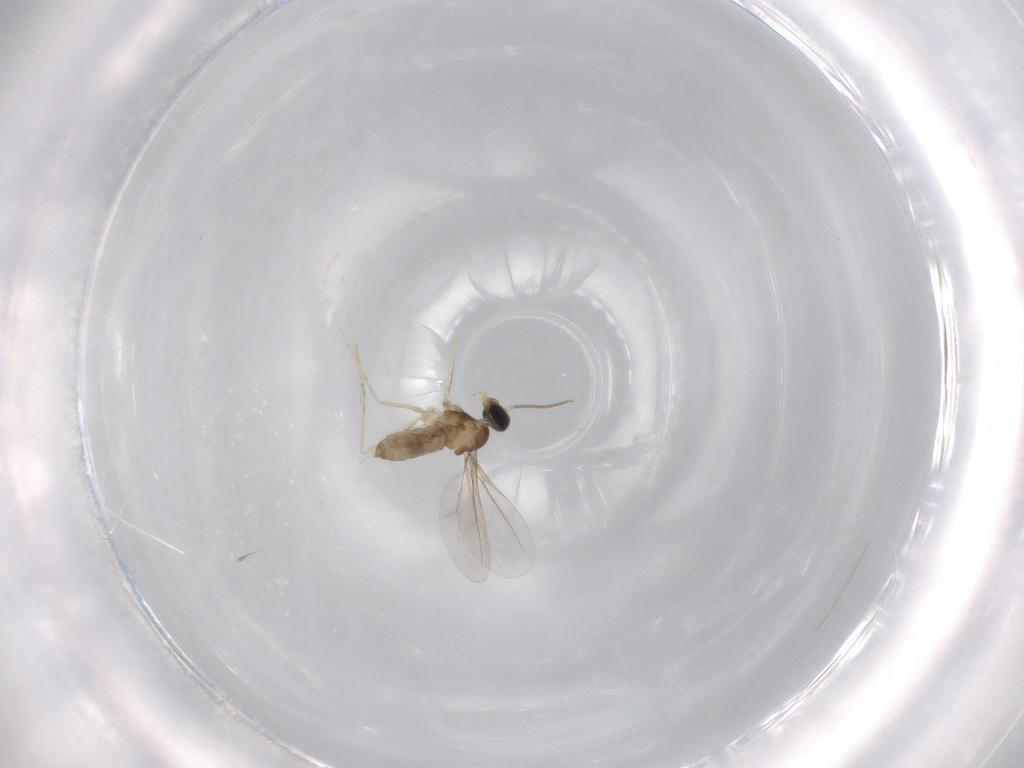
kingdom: Animalia
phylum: Arthropoda
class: Insecta
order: Diptera
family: Cecidomyiidae
